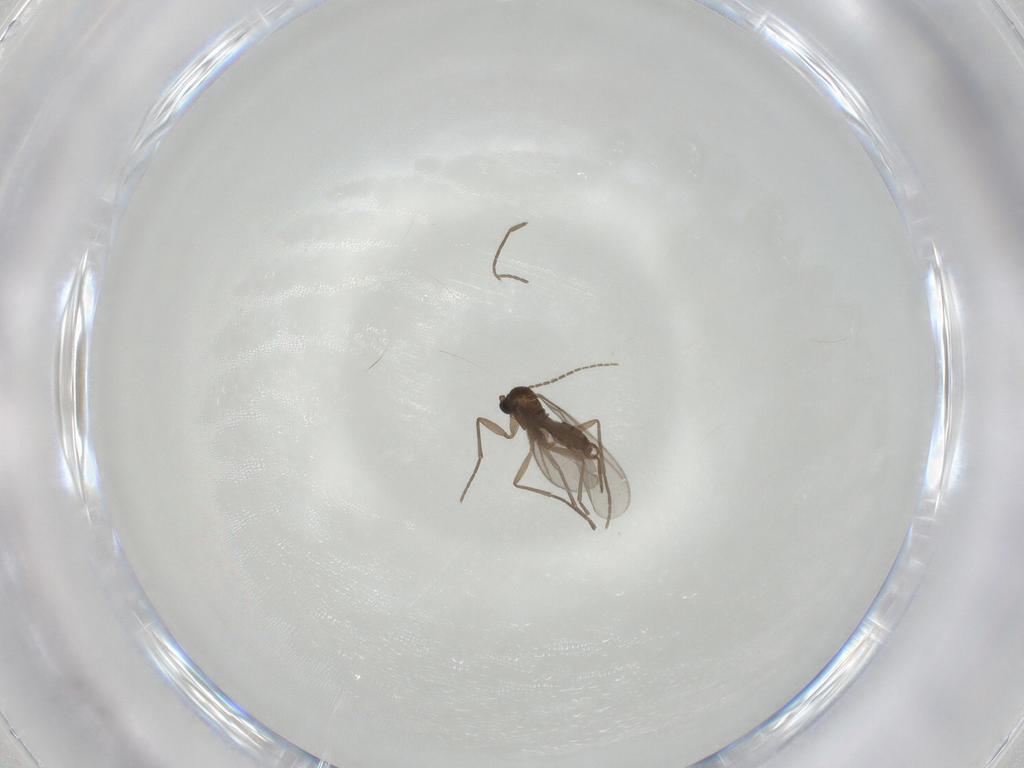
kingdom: Animalia
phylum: Arthropoda
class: Insecta
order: Diptera
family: Sciaridae
